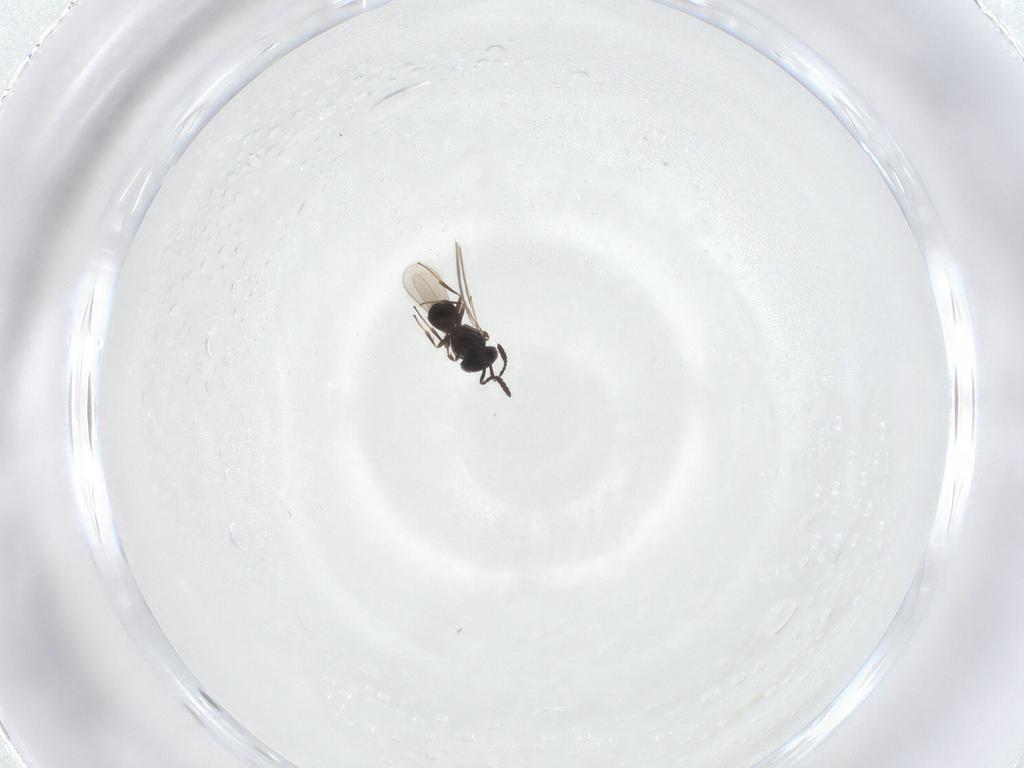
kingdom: Animalia
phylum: Arthropoda
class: Insecta
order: Hymenoptera
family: Scelionidae
